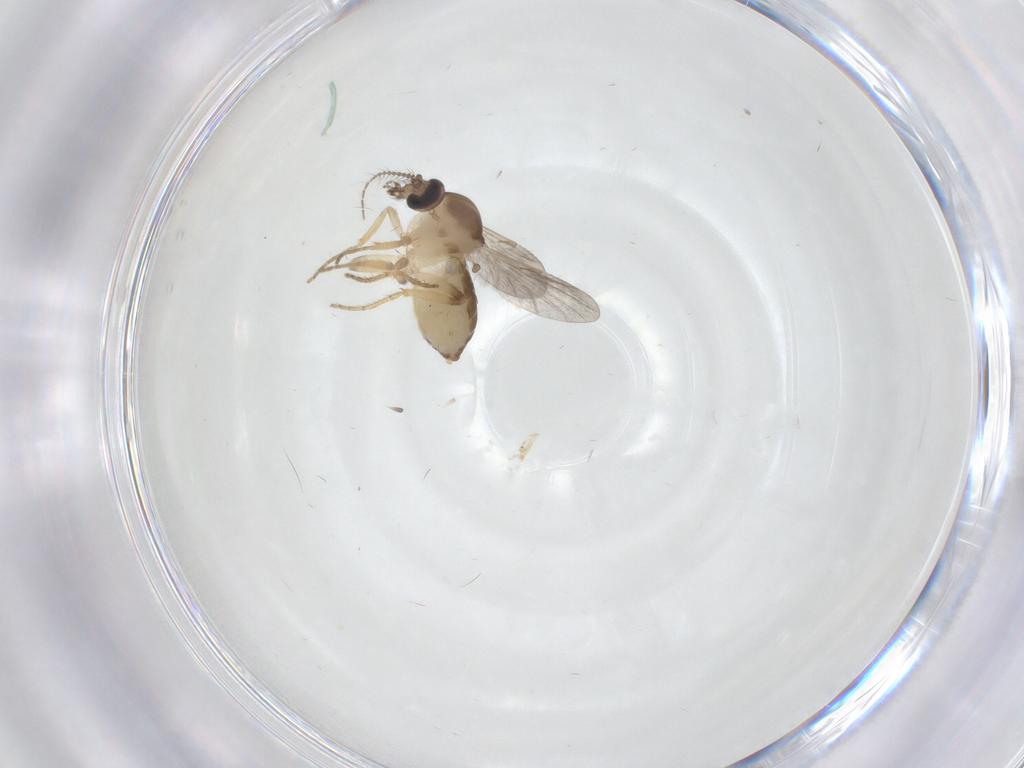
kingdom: Animalia
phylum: Arthropoda
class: Insecta
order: Diptera
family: Ceratopogonidae
